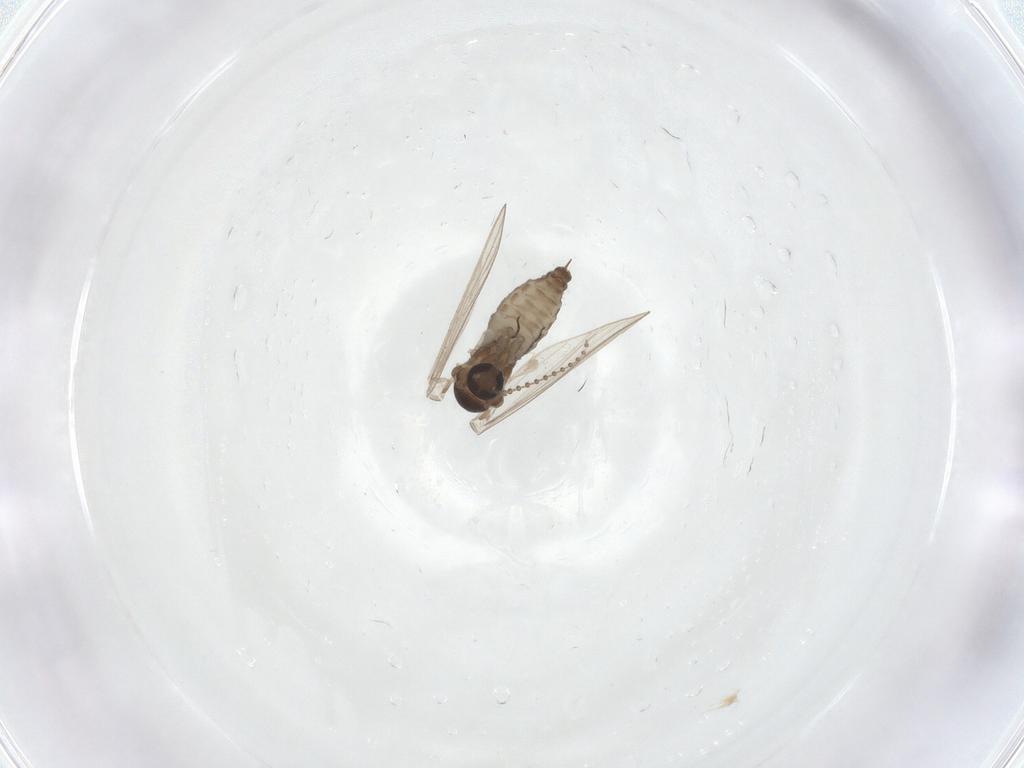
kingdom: Animalia
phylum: Arthropoda
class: Insecta
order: Diptera
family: Psychodidae
